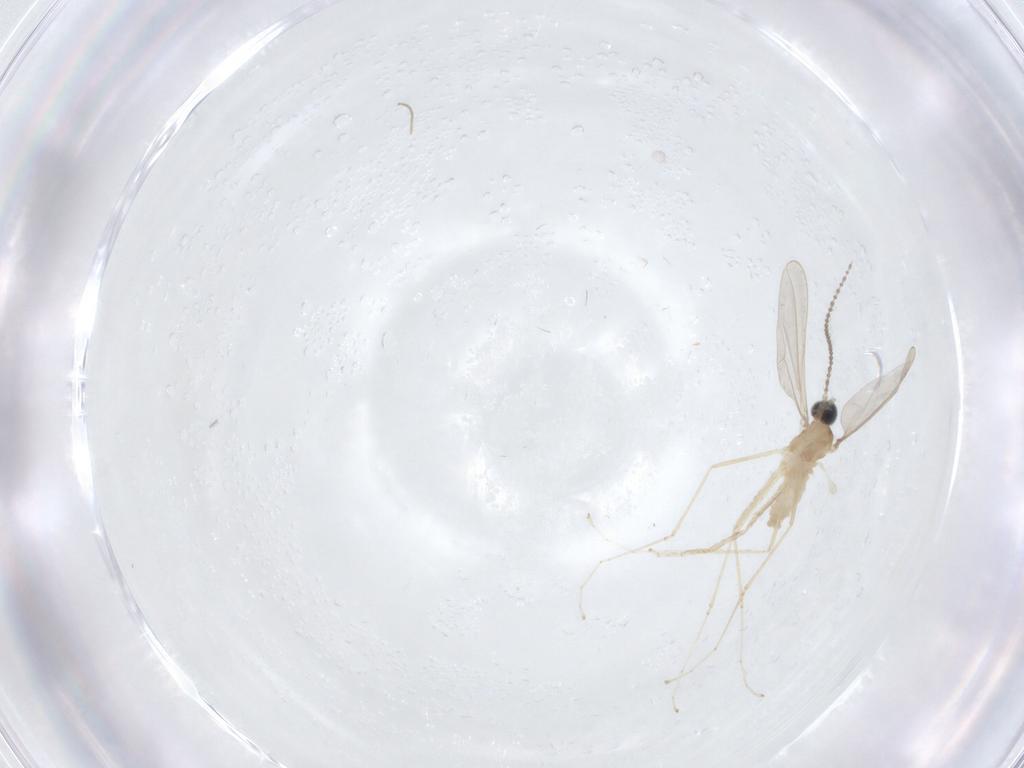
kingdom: Animalia
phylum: Arthropoda
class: Insecta
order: Diptera
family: Cecidomyiidae
